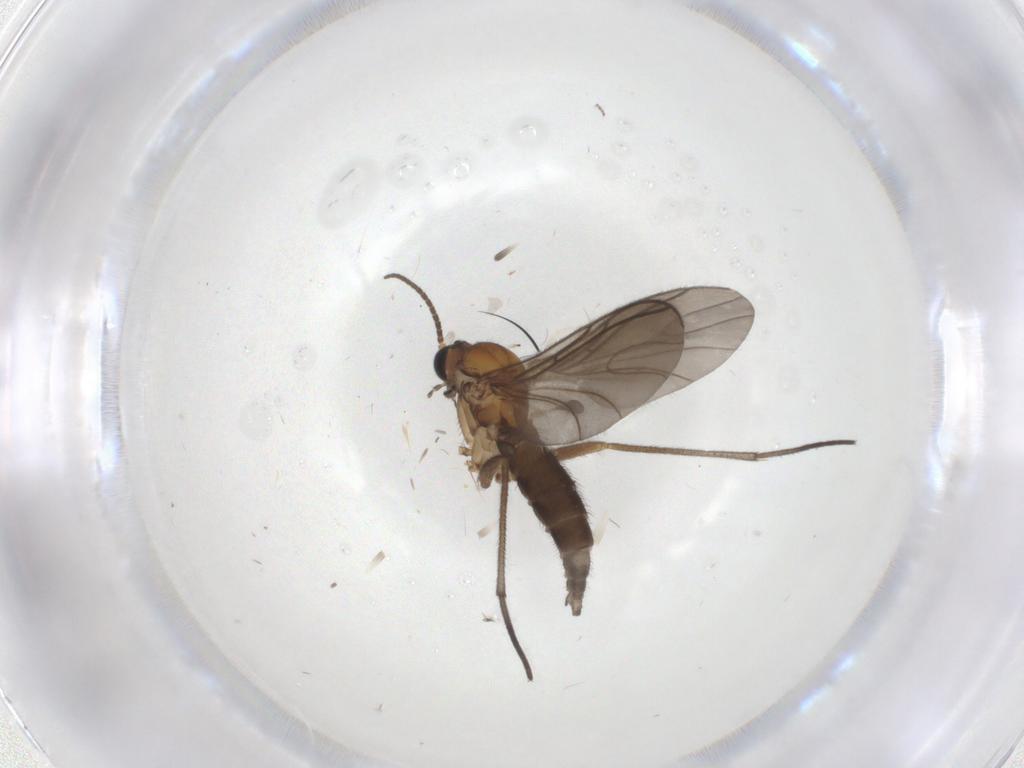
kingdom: Animalia
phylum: Arthropoda
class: Insecta
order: Diptera
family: Sciaridae
